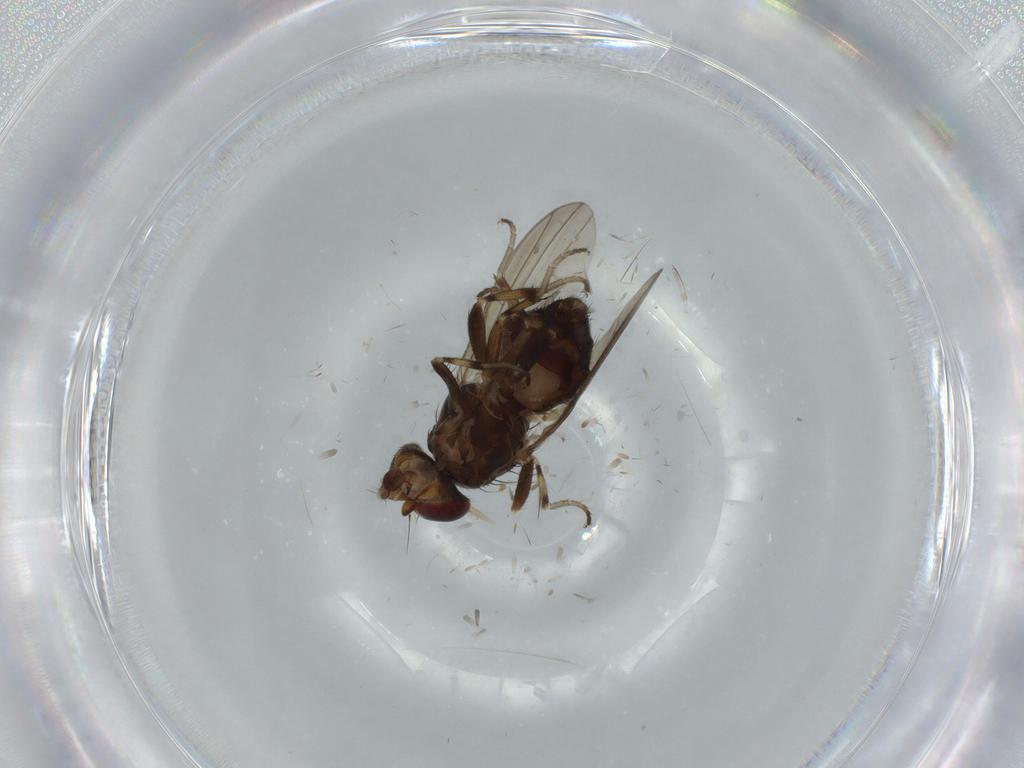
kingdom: Animalia
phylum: Arthropoda
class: Insecta
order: Diptera
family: Heleomyzidae
